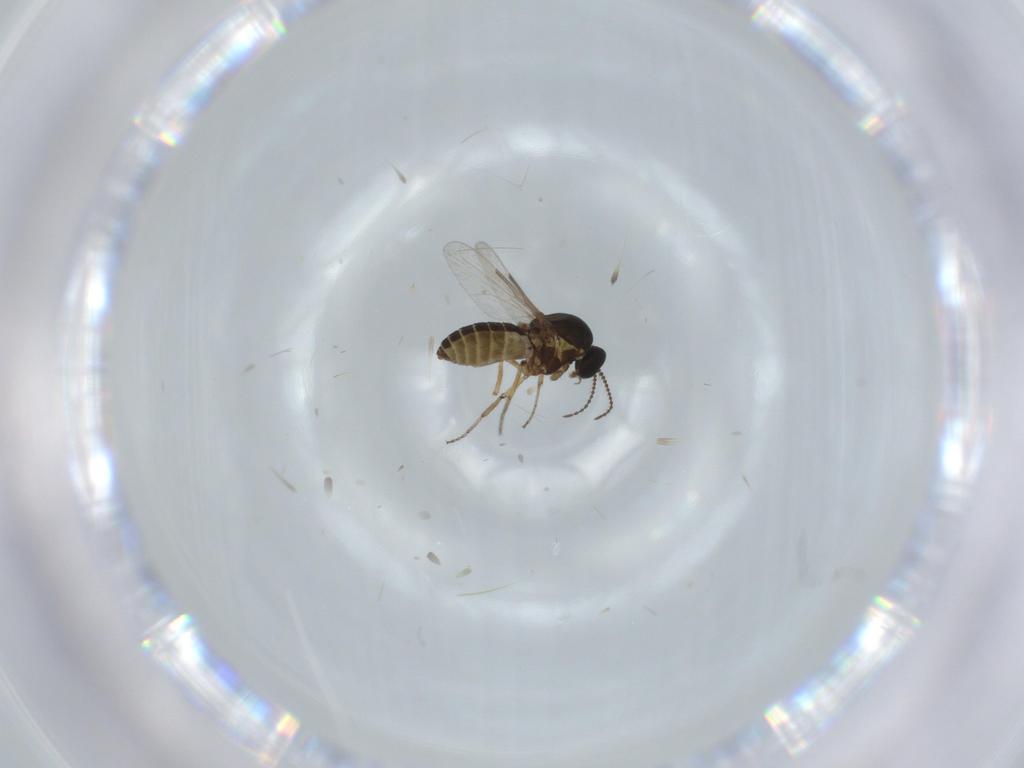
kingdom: Animalia
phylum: Arthropoda
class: Insecta
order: Diptera
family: Ceratopogonidae
